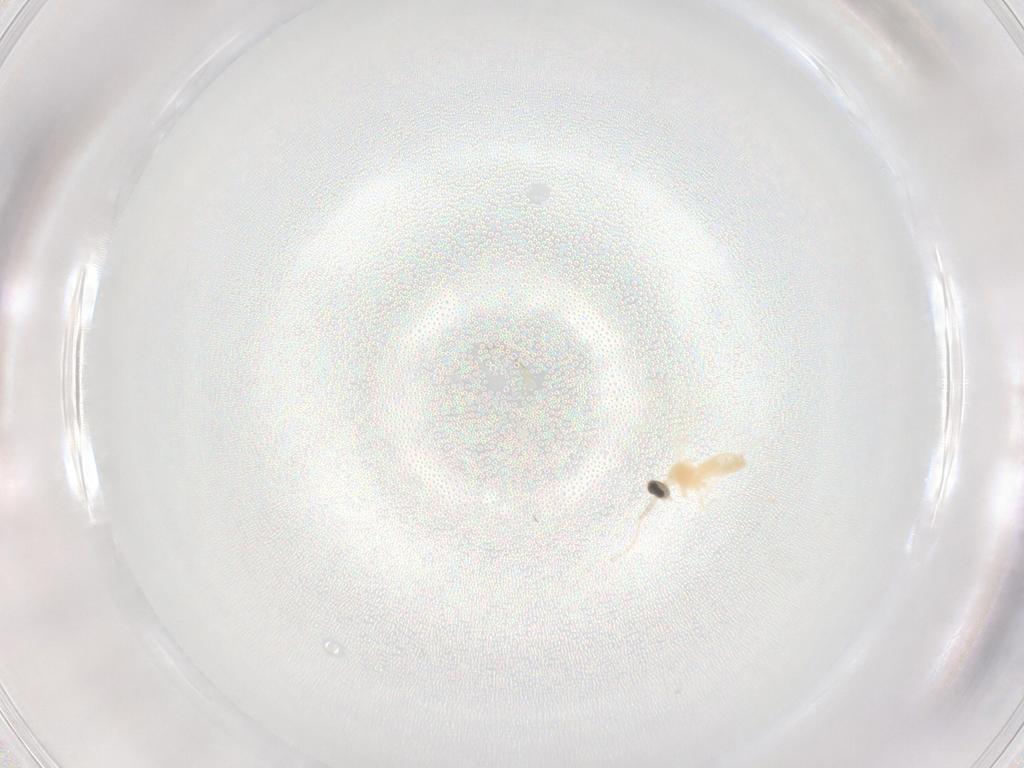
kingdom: Animalia
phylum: Arthropoda
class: Insecta
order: Diptera
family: Cecidomyiidae
